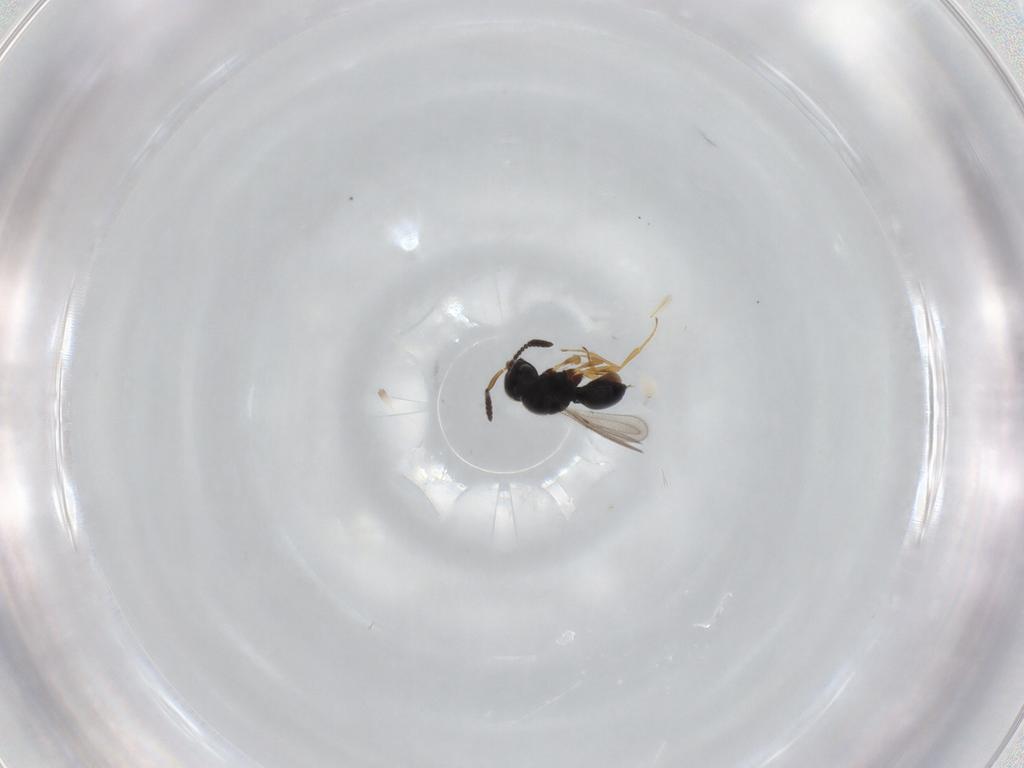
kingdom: Animalia
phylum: Arthropoda
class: Insecta
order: Hymenoptera
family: Scelionidae
